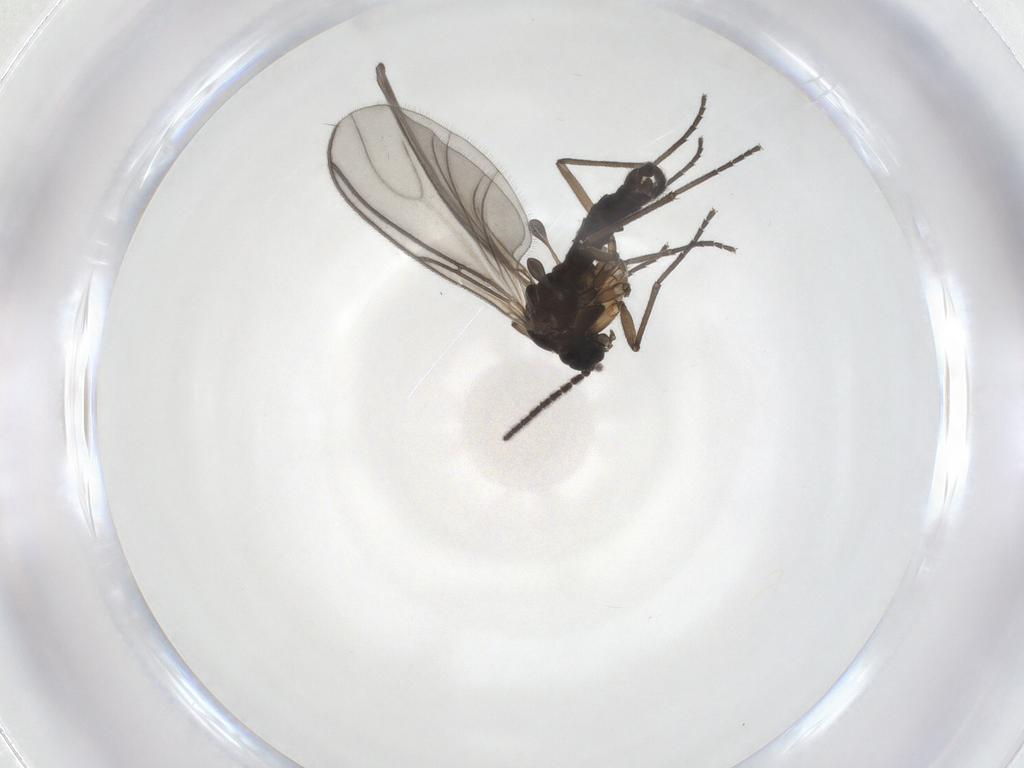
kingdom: Animalia
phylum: Arthropoda
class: Insecta
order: Diptera
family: Sciaridae
